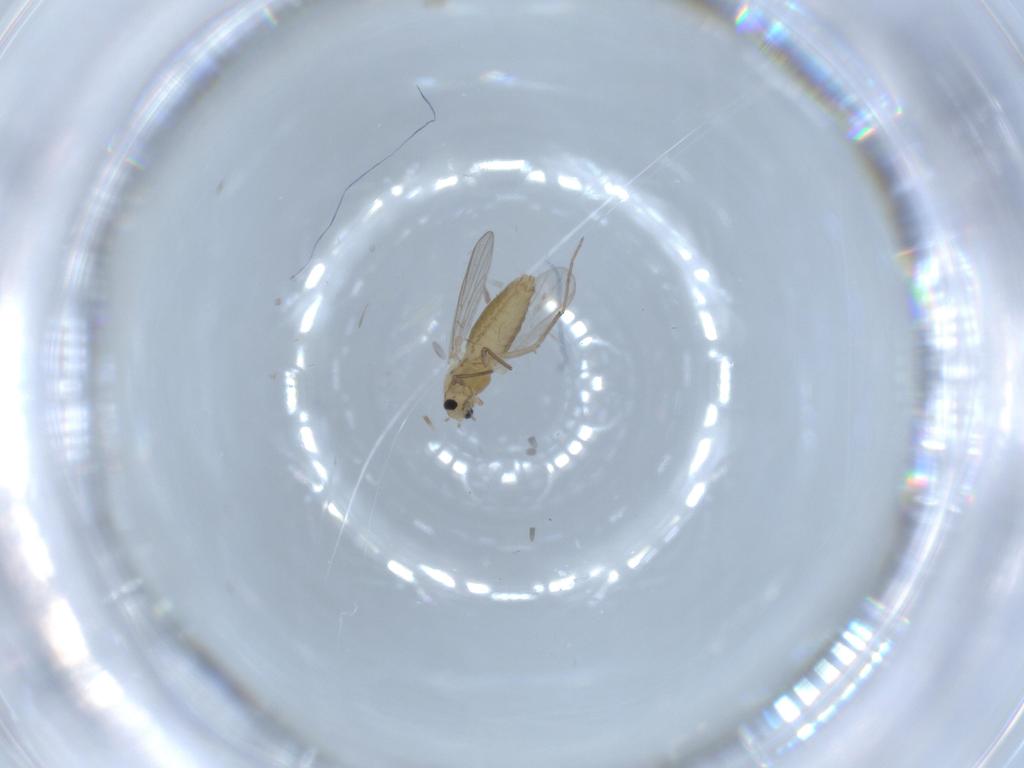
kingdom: Animalia
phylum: Arthropoda
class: Insecta
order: Diptera
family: Chironomidae
